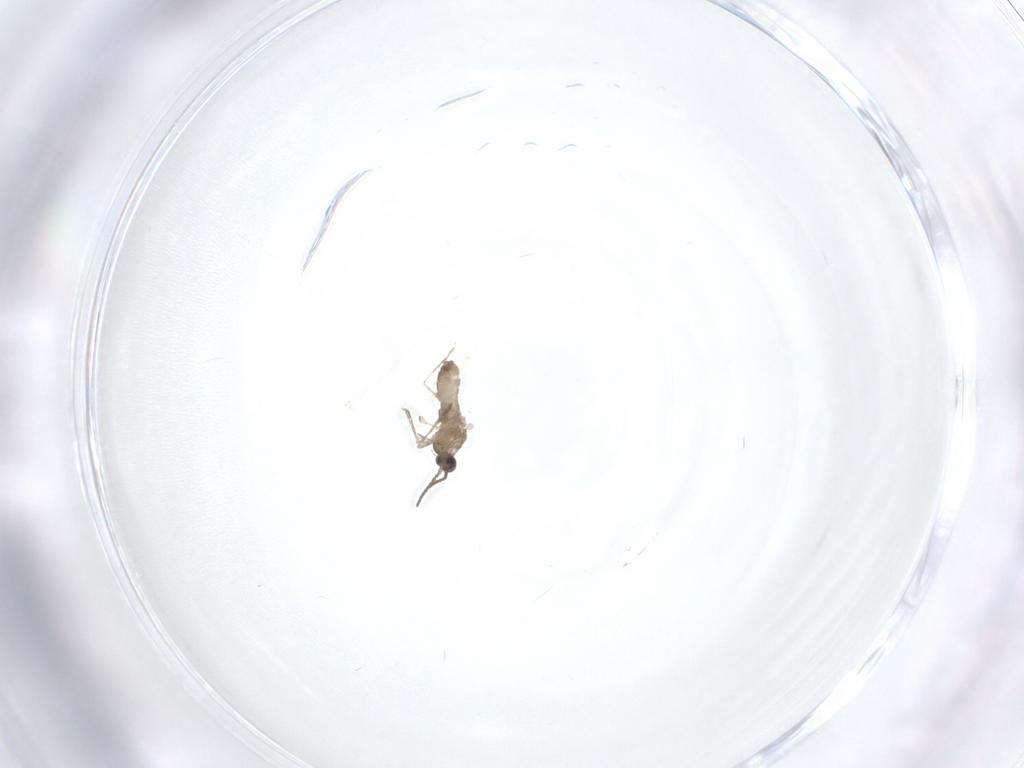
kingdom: Animalia
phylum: Arthropoda
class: Insecta
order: Diptera
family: Cecidomyiidae
